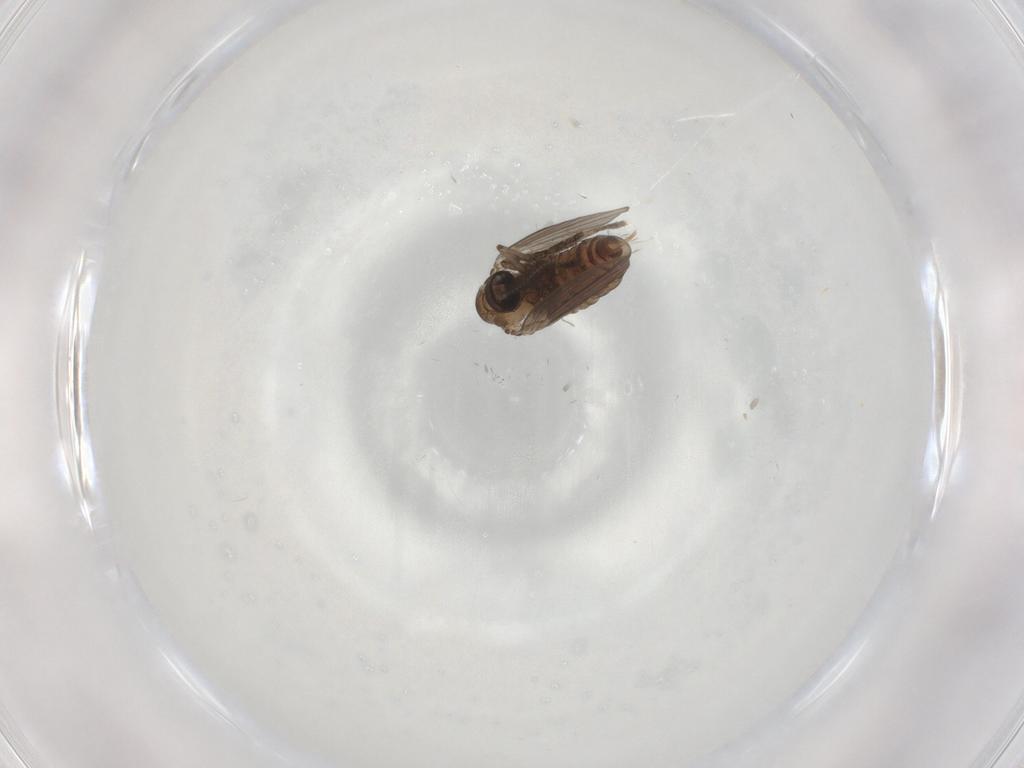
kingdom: Animalia
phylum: Arthropoda
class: Insecta
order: Diptera
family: Psychodidae
